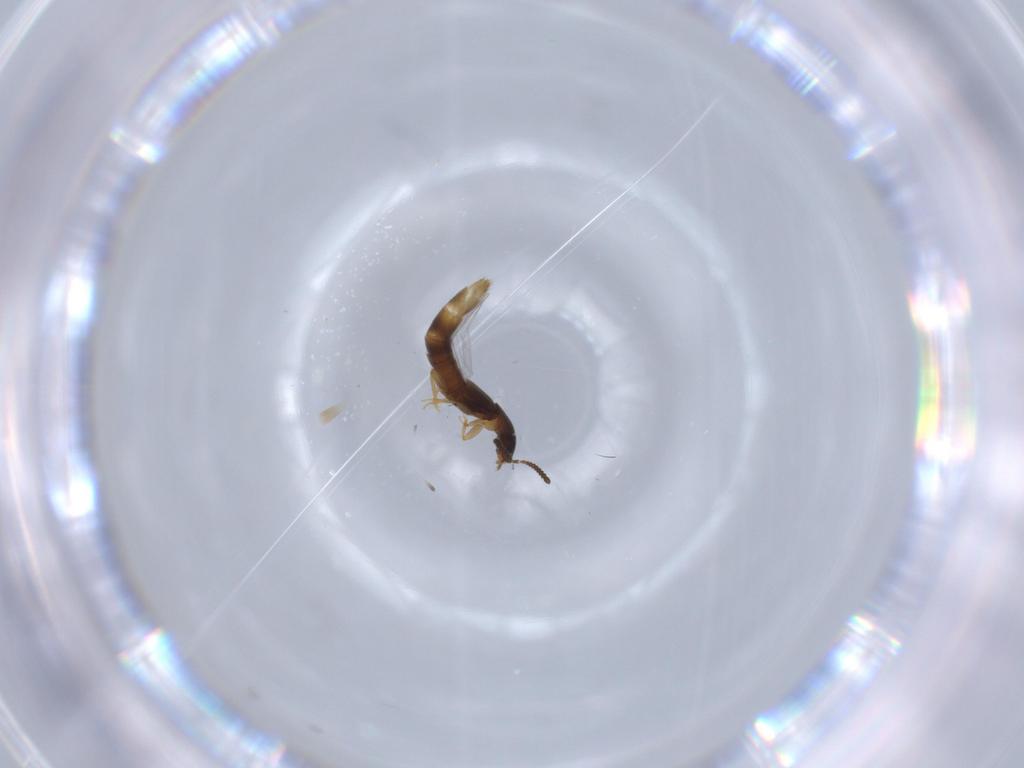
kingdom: Animalia
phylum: Arthropoda
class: Insecta
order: Coleoptera
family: Staphylinidae
